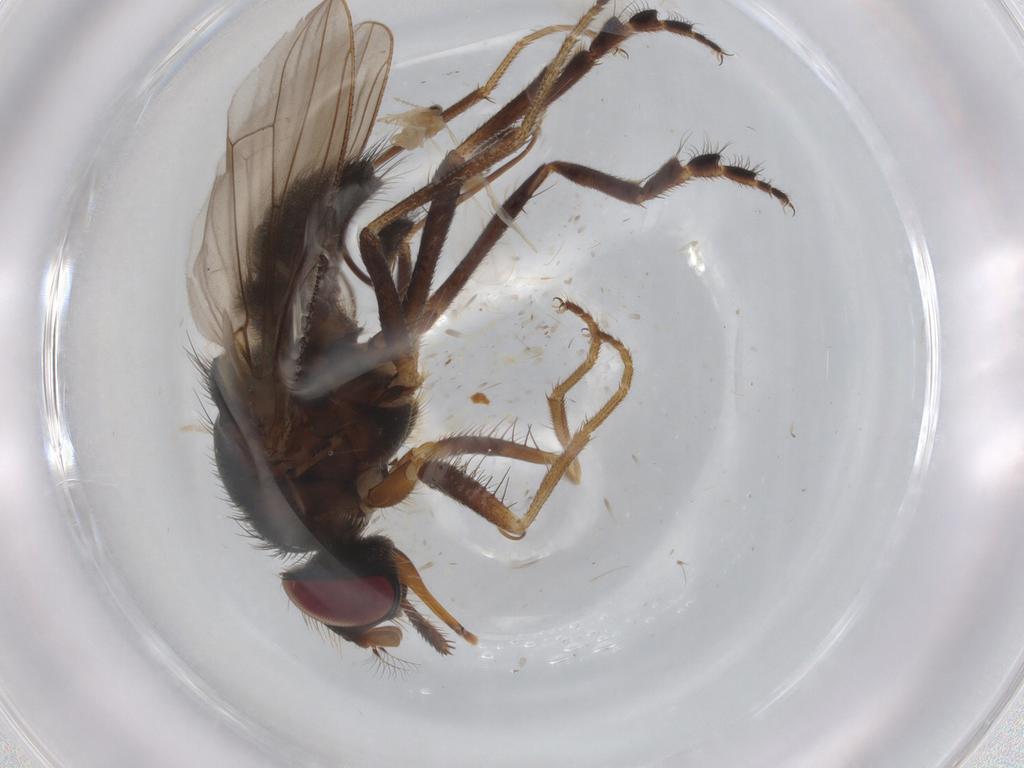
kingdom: Animalia
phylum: Arthropoda
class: Insecta
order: Diptera
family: Cecidomyiidae
